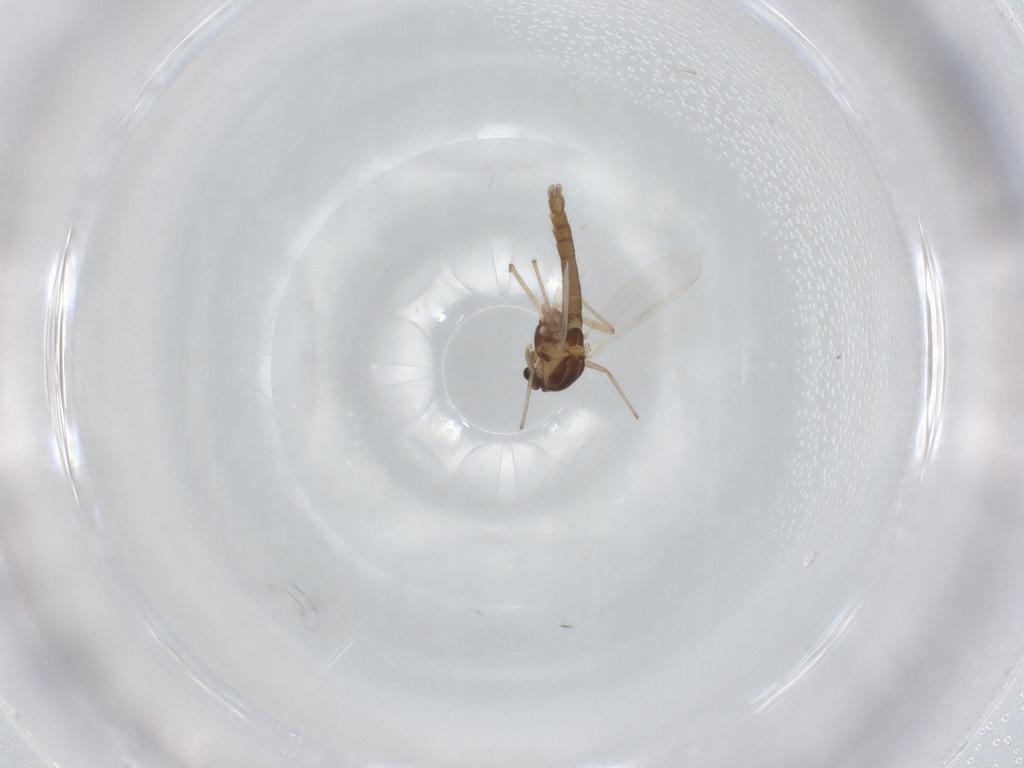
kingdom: Animalia
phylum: Arthropoda
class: Insecta
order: Diptera
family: Chironomidae
